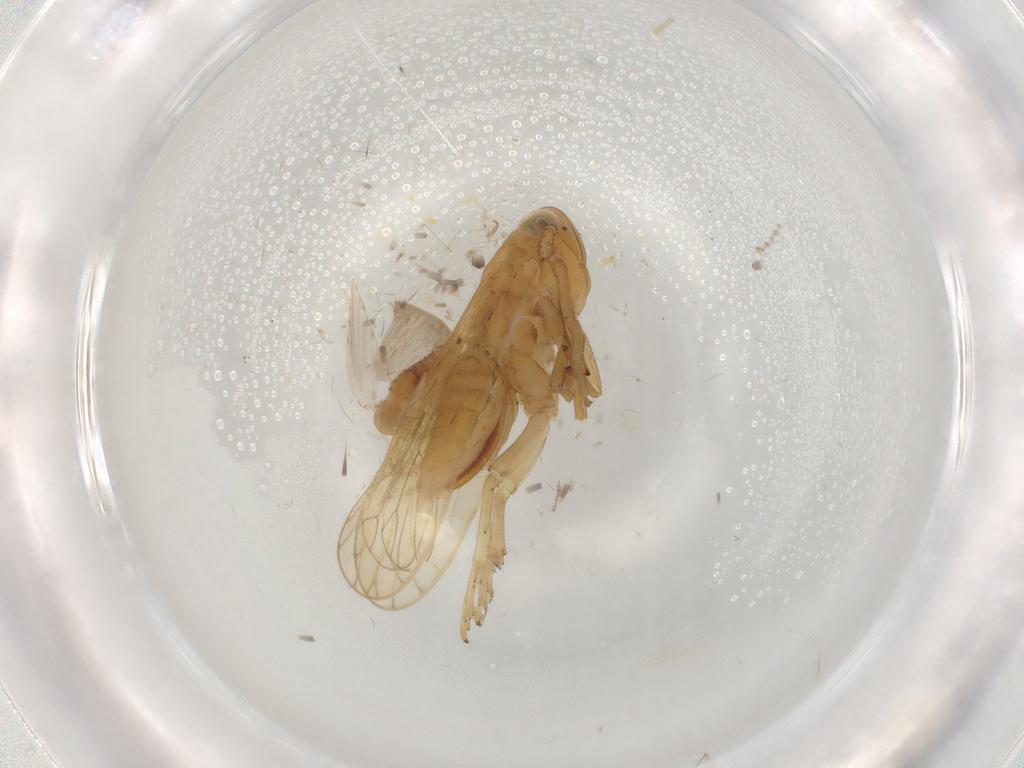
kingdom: Animalia
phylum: Arthropoda
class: Insecta
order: Hemiptera
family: Delphacidae
